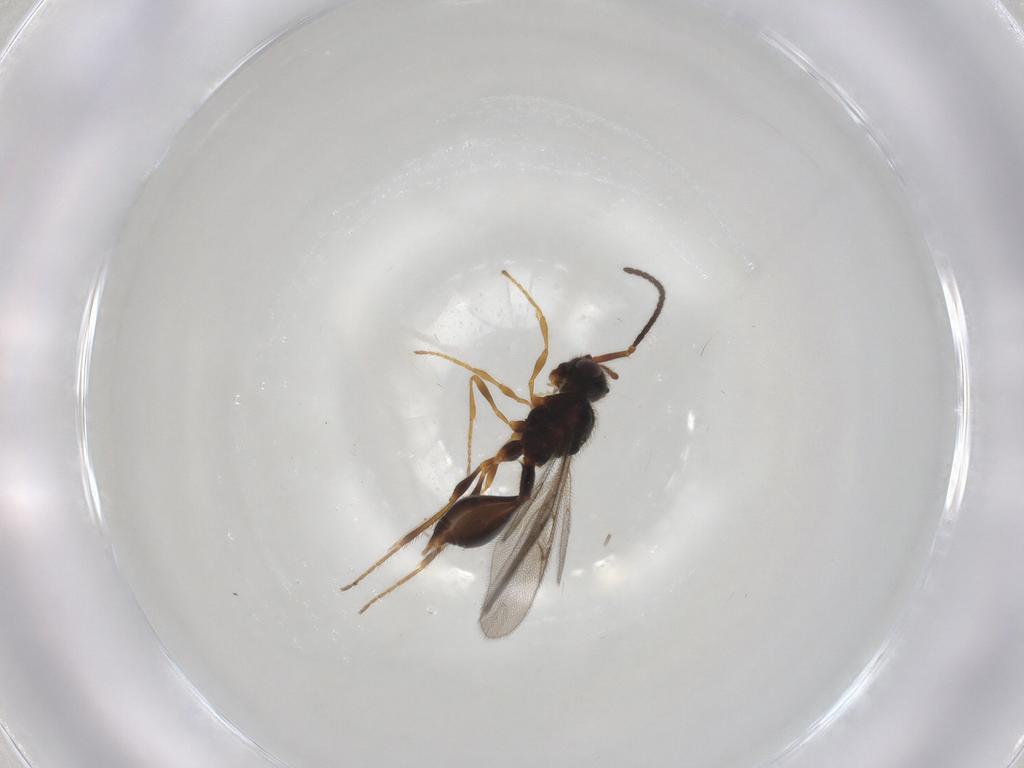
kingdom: Animalia
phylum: Arthropoda
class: Insecta
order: Hymenoptera
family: Diapriidae
